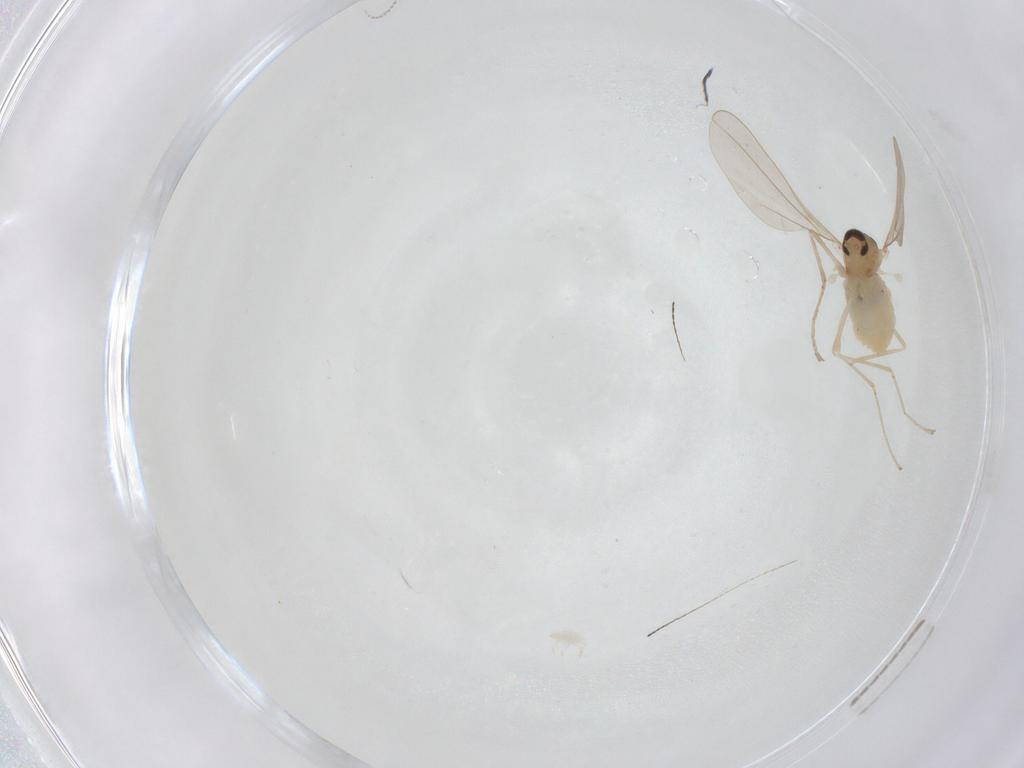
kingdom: Animalia
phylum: Arthropoda
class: Insecta
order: Diptera
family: Cecidomyiidae
